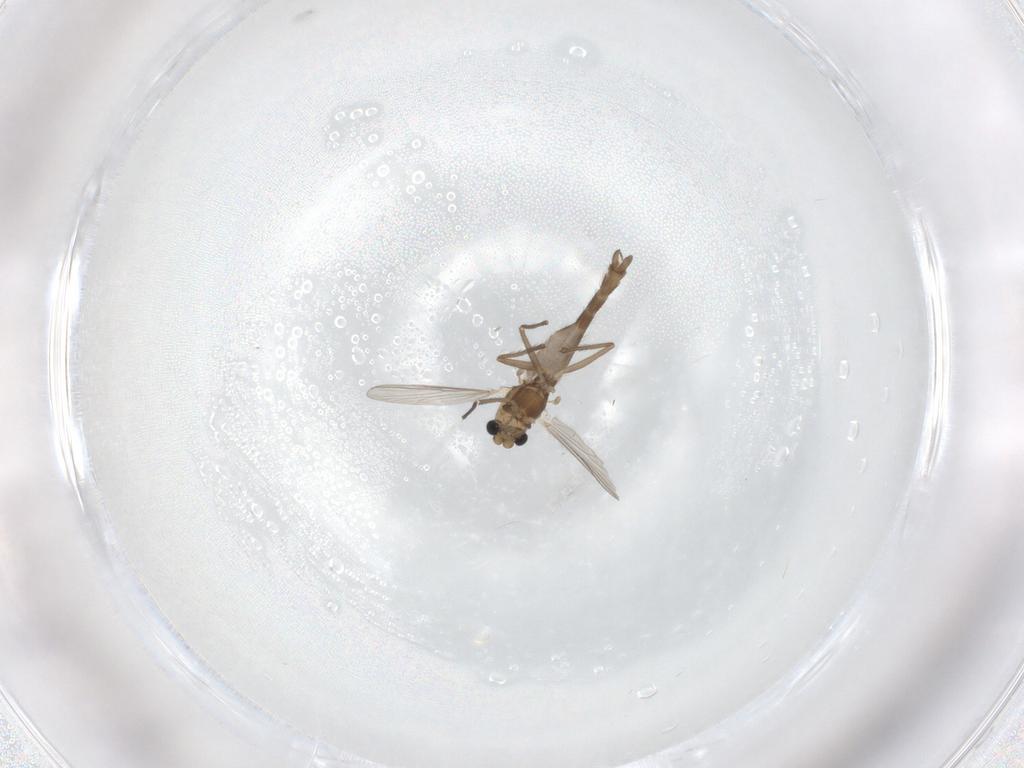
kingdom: Animalia
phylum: Arthropoda
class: Insecta
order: Diptera
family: Chironomidae
